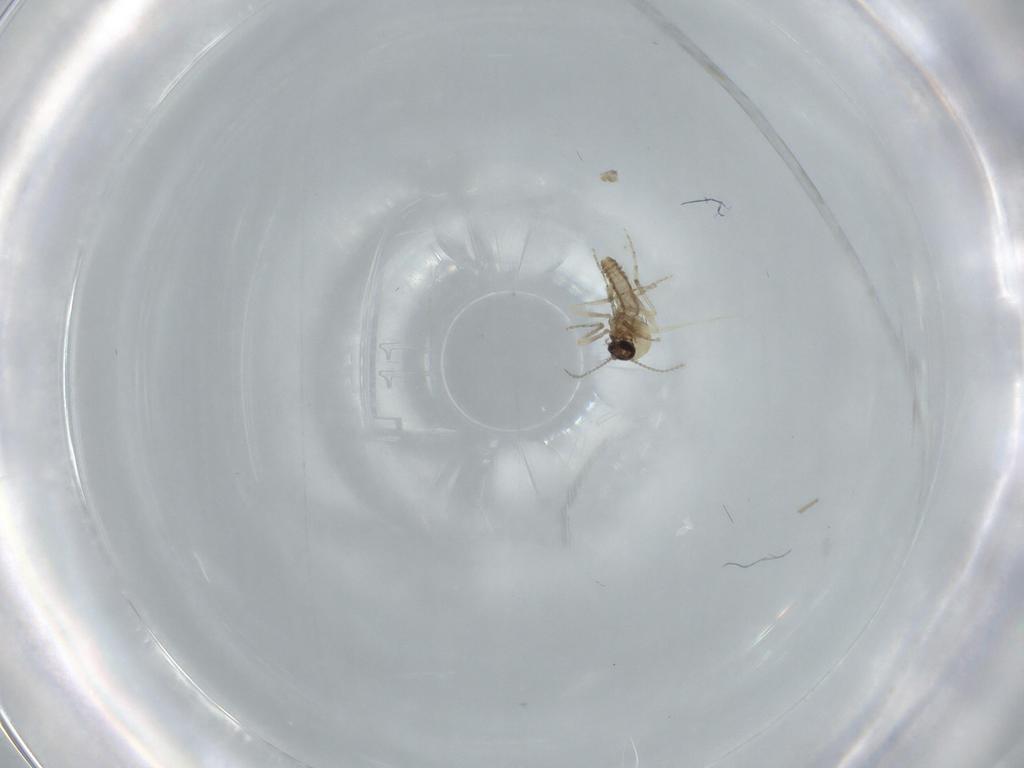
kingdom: Animalia
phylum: Arthropoda
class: Insecta
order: Diptera
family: Ceratopogonidae
